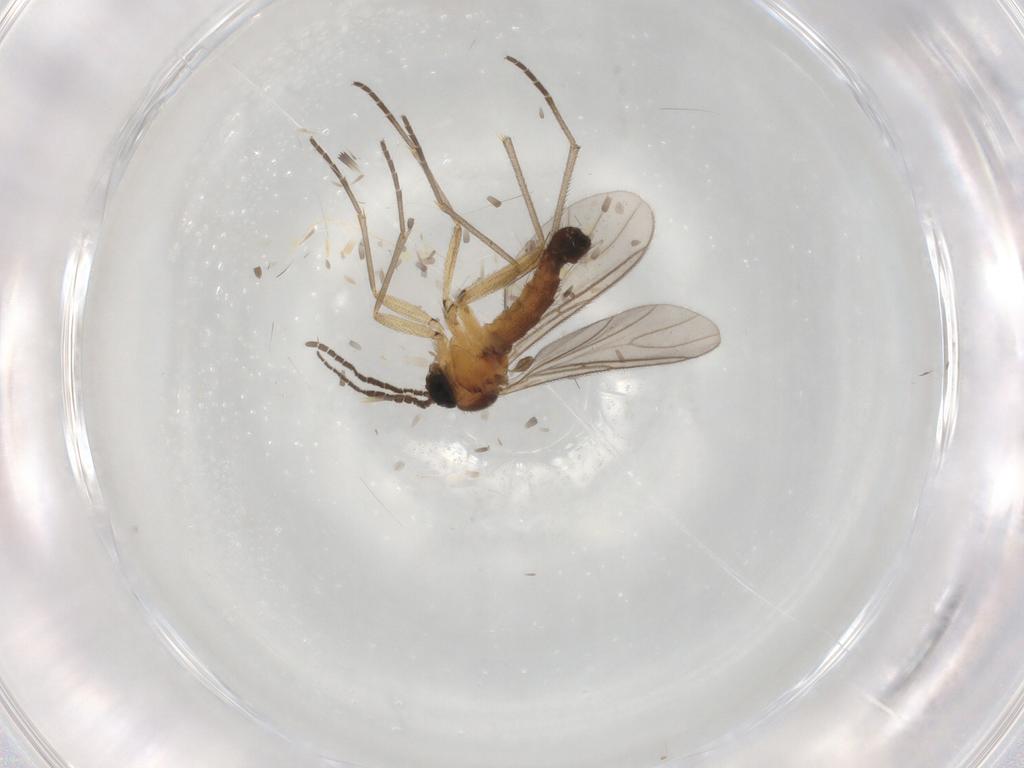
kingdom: Animalia
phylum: Arthropoda
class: Insecta
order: Diptera
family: Sciaridae
